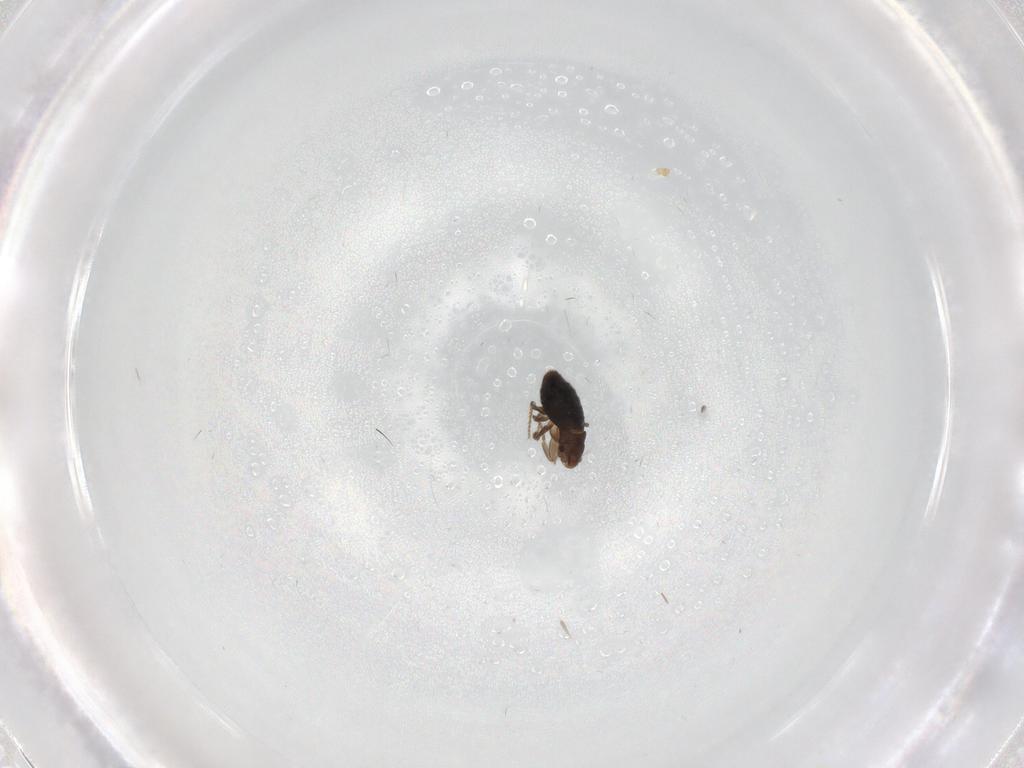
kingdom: Animalia
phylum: Arthropoda
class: Insecta
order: Diptera
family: Phoridae
